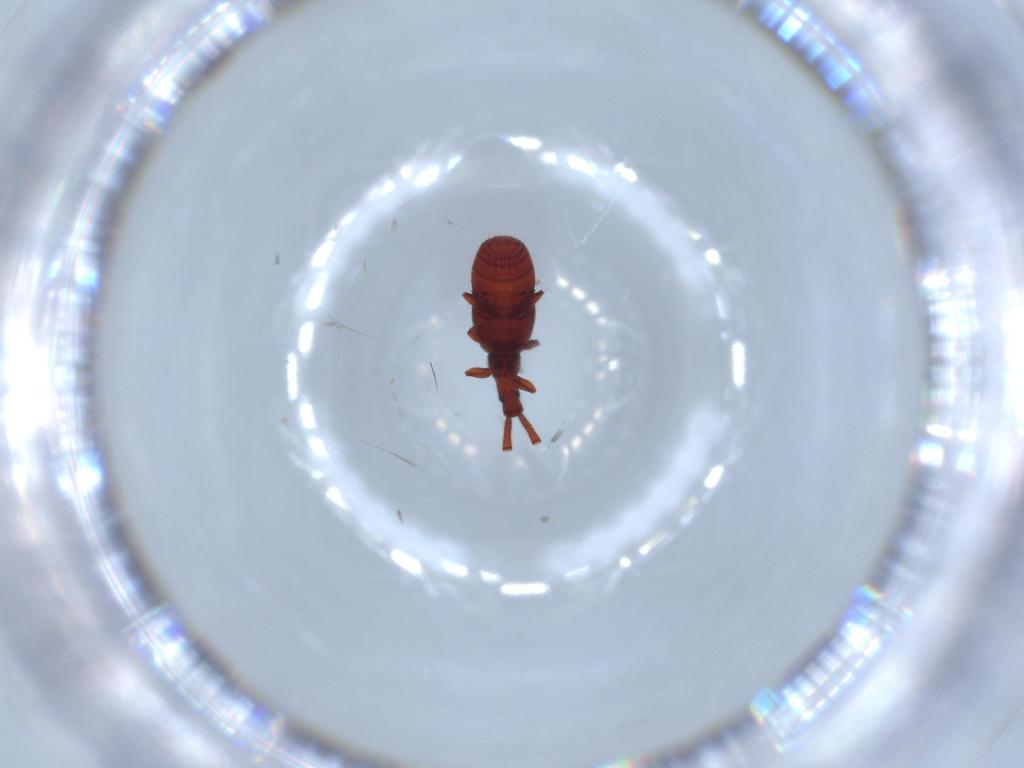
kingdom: Animalia
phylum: Arthropoda
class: Insecta
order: Coleoptera
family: Staphylinidae
